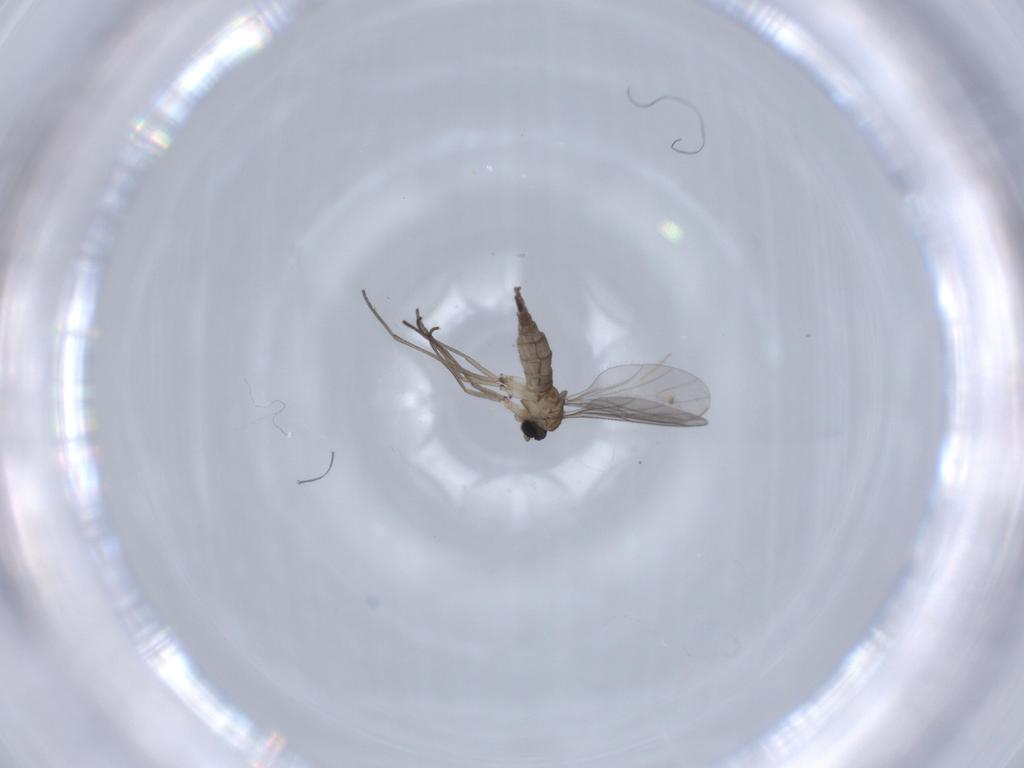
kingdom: Animalia
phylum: Arthropoda
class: Insecta
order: Diptera
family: Sciaridae
